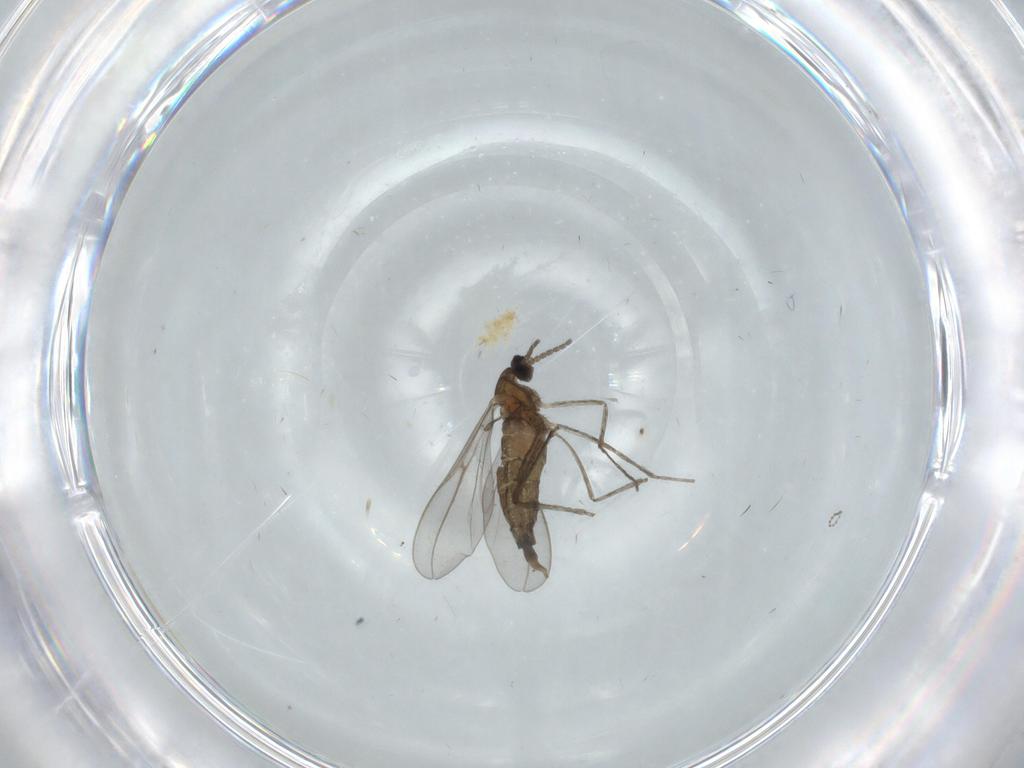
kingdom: Animalia
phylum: Arthropoda
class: Insecta
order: Diptera
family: Cecidomyiidae
